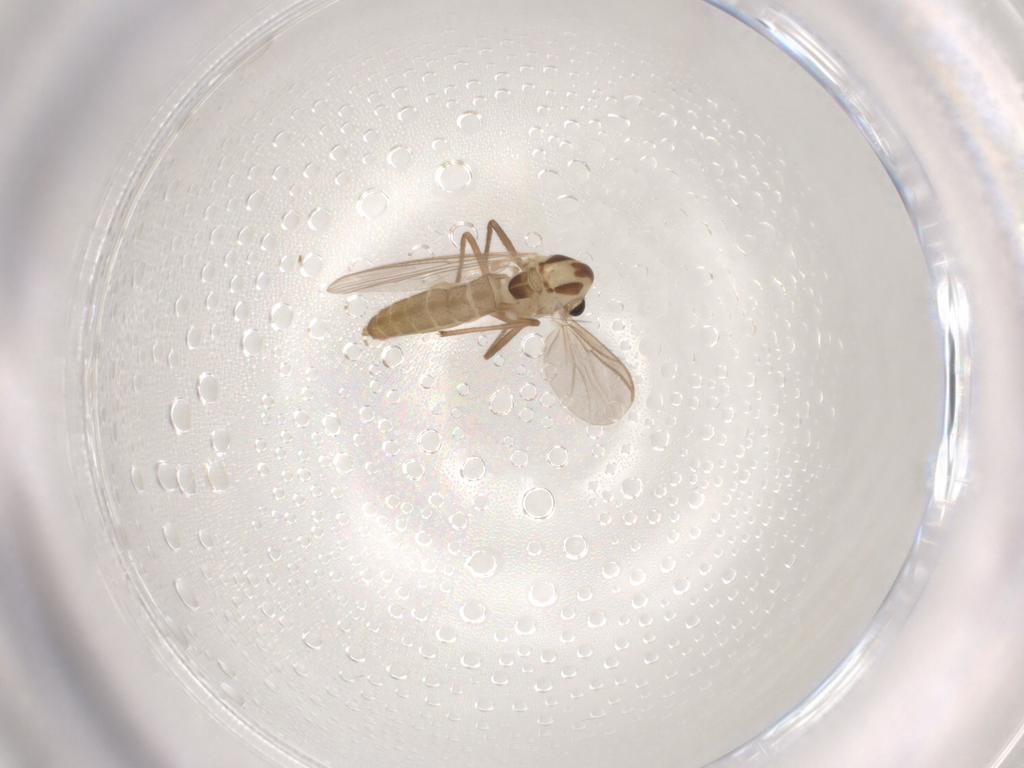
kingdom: Animalia
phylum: Arthropoda
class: Insecta
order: Diptera
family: Chironomidae
